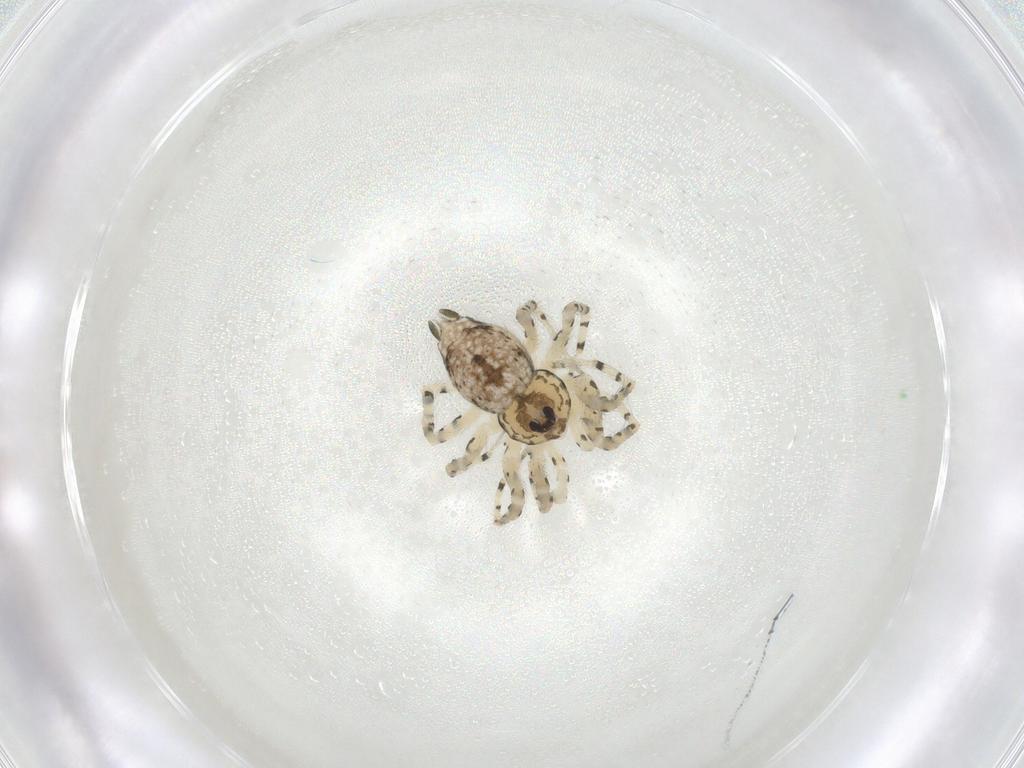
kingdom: Animalia
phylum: Arthropoda
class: Arachnida
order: Araneae
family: Oecobiidae
